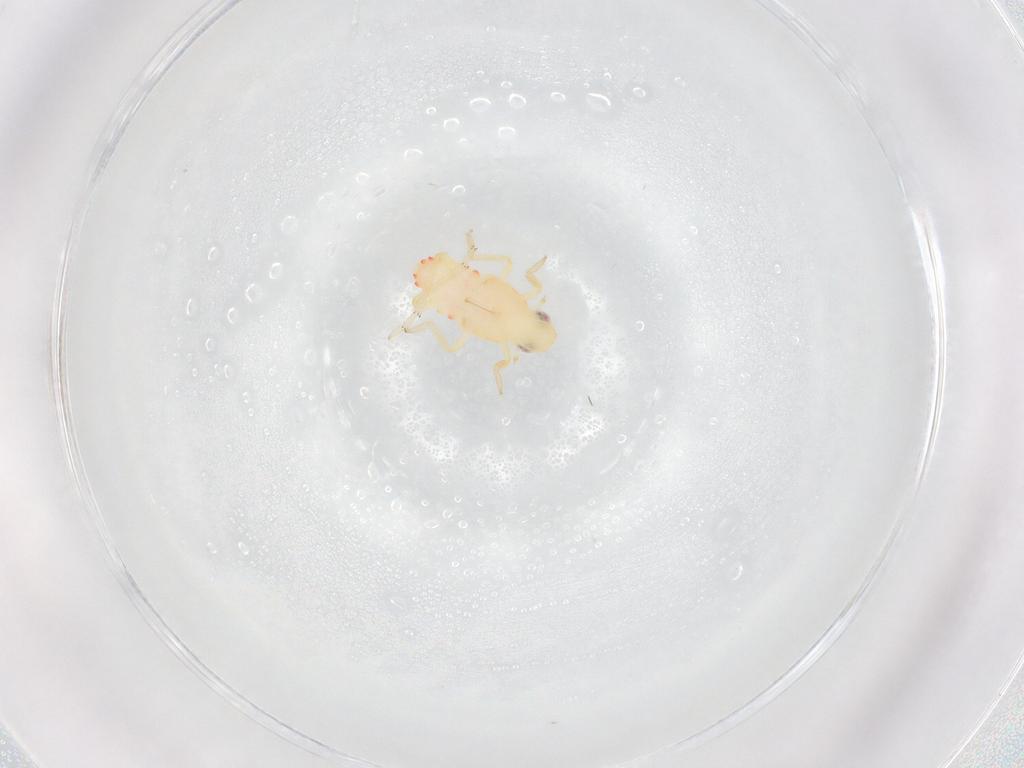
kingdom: Animalia
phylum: Arthropoda
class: Insecta
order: Hemiptera
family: Tropiduchidae
